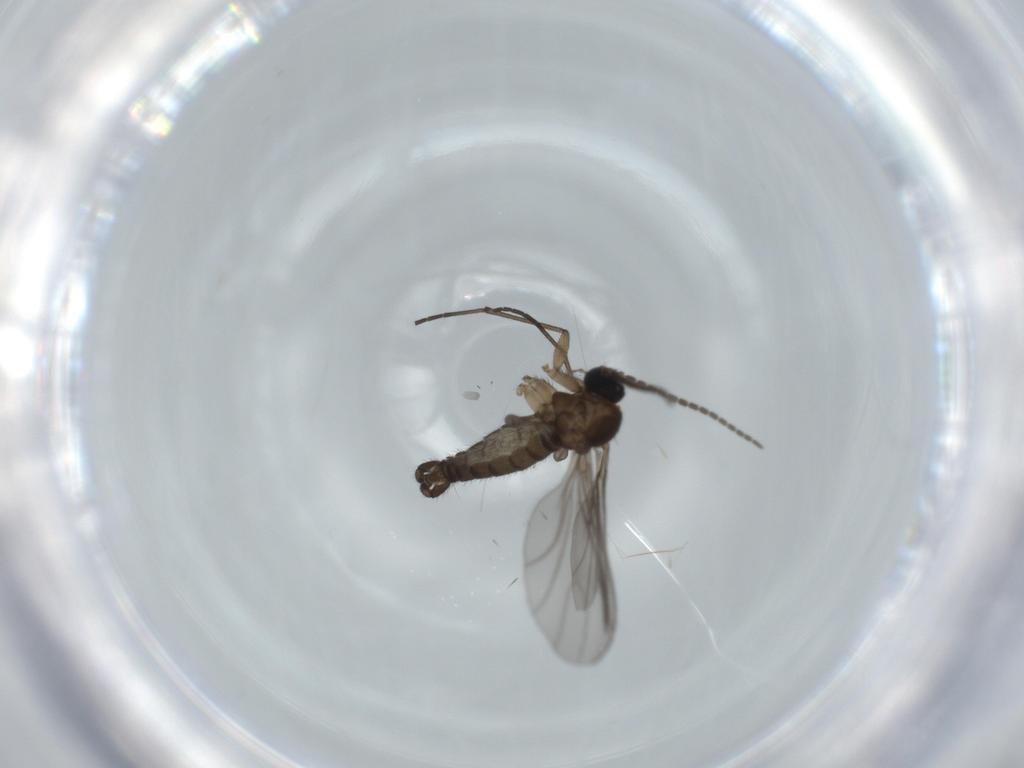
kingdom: Animalia
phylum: Arthropoda
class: Insecta
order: Diptera
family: Sciaridae
